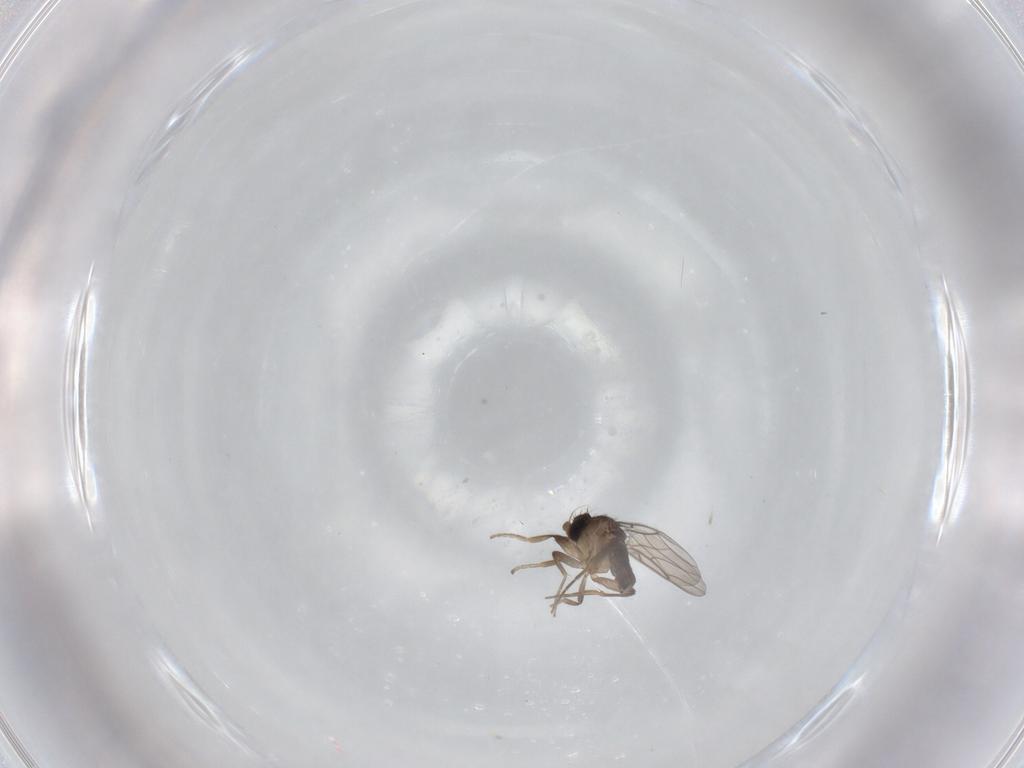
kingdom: Animalia
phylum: Arthropoda
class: Insecta
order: Diptera
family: Phoridae
